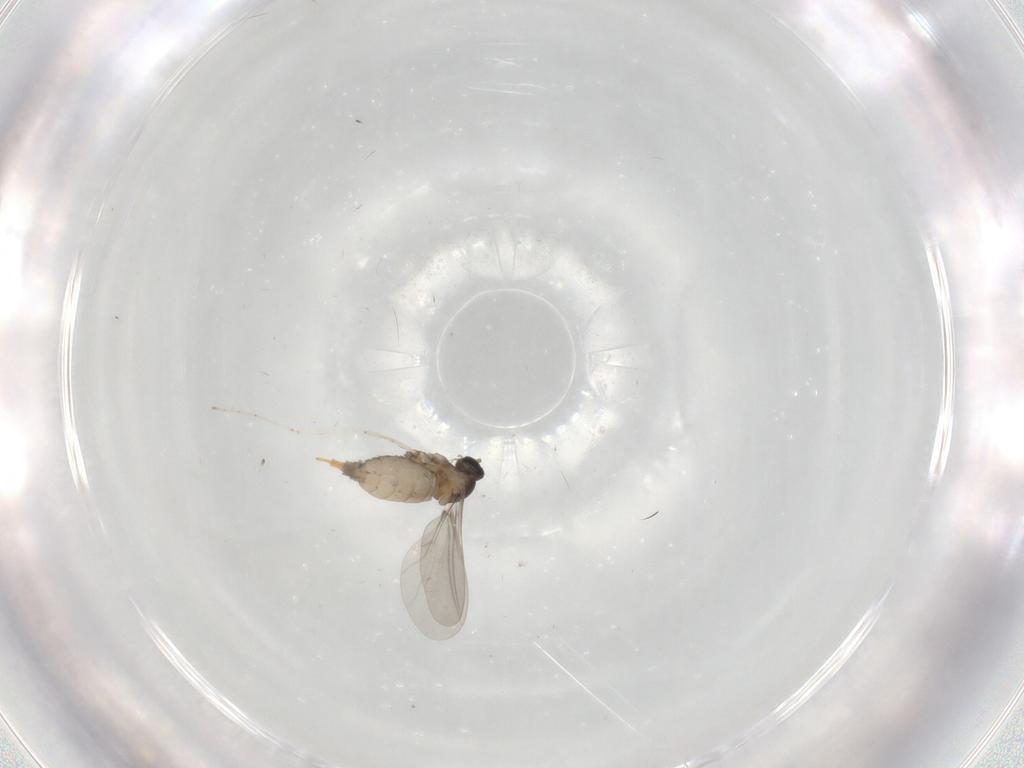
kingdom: Animalia
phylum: Arthropoda
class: Insecta
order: Diptera
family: Cecidomyiidae
